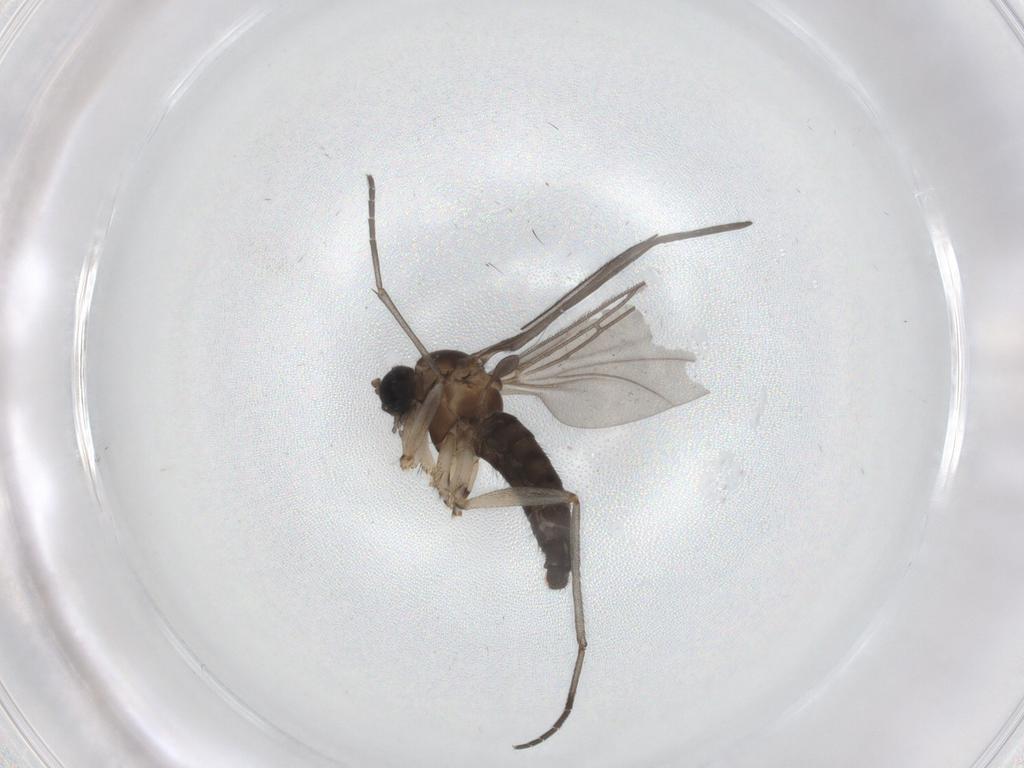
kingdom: Animalia
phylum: Arthropoda
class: Insecta
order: Diptera
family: Sciaridae
